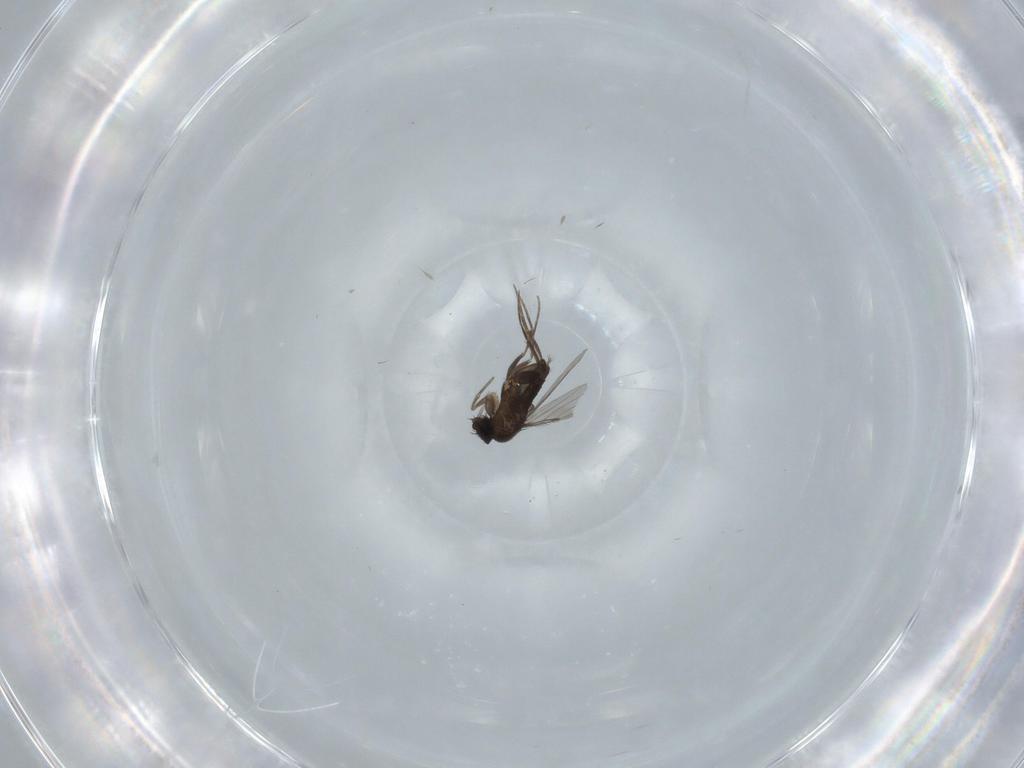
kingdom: Animalia
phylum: Arthropoda
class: Insecta
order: Diptera
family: Phoridae
